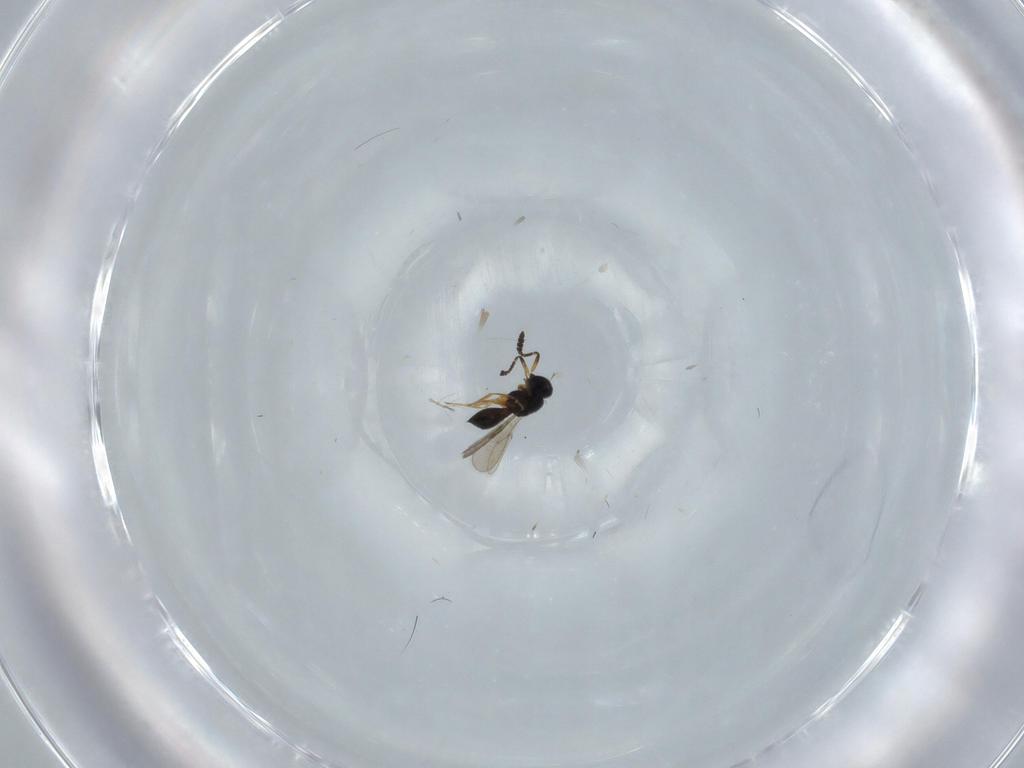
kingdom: Animalia
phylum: Arthropoda
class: Insecta
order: Hymenoptera
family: Scelionidae
